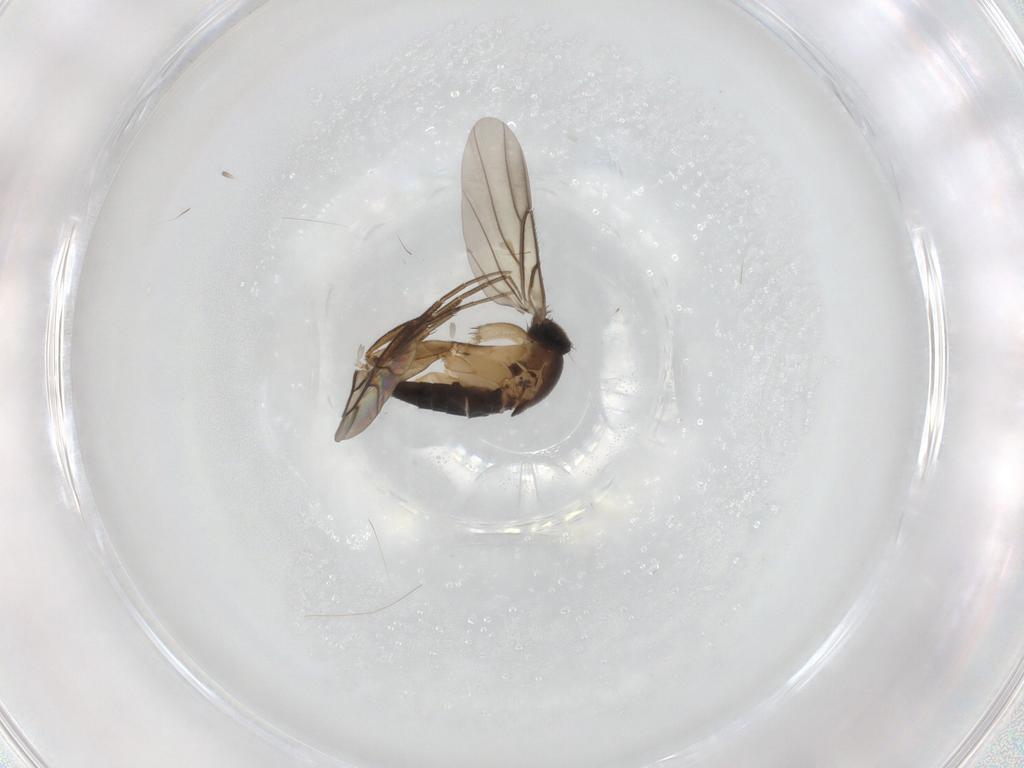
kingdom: Animalia
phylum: Arthropoda
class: Insecta
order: Diptera
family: Phoridae
